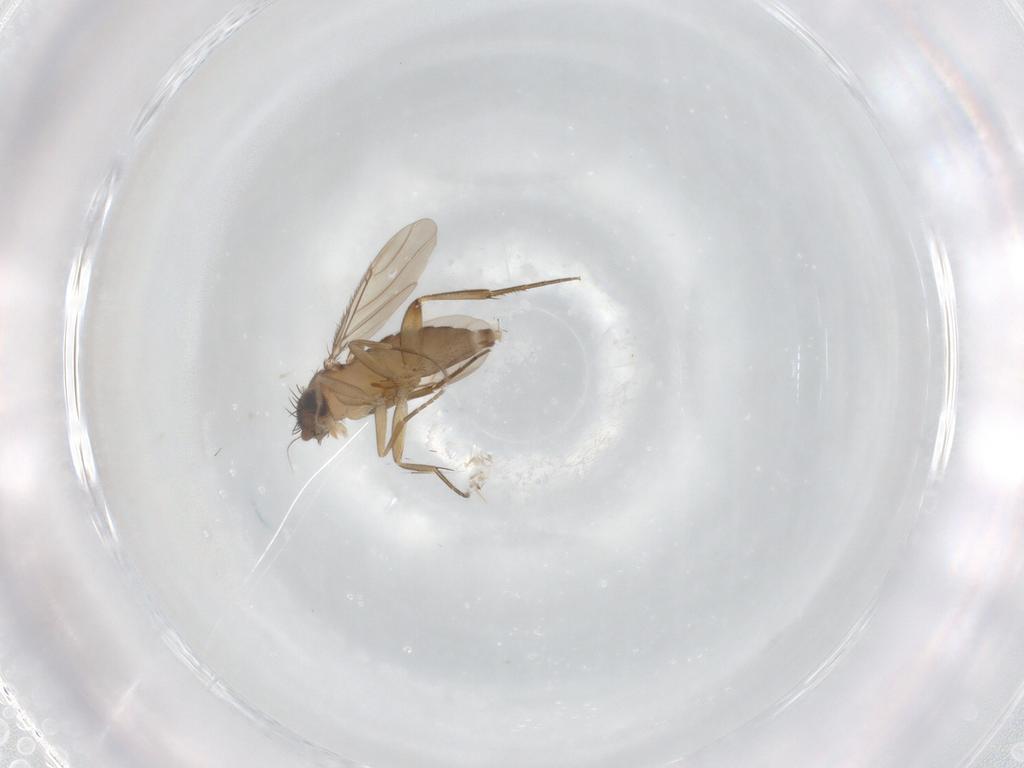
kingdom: Animalia
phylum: Arthropoda
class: Insecta
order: Diptera
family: Phoridae
